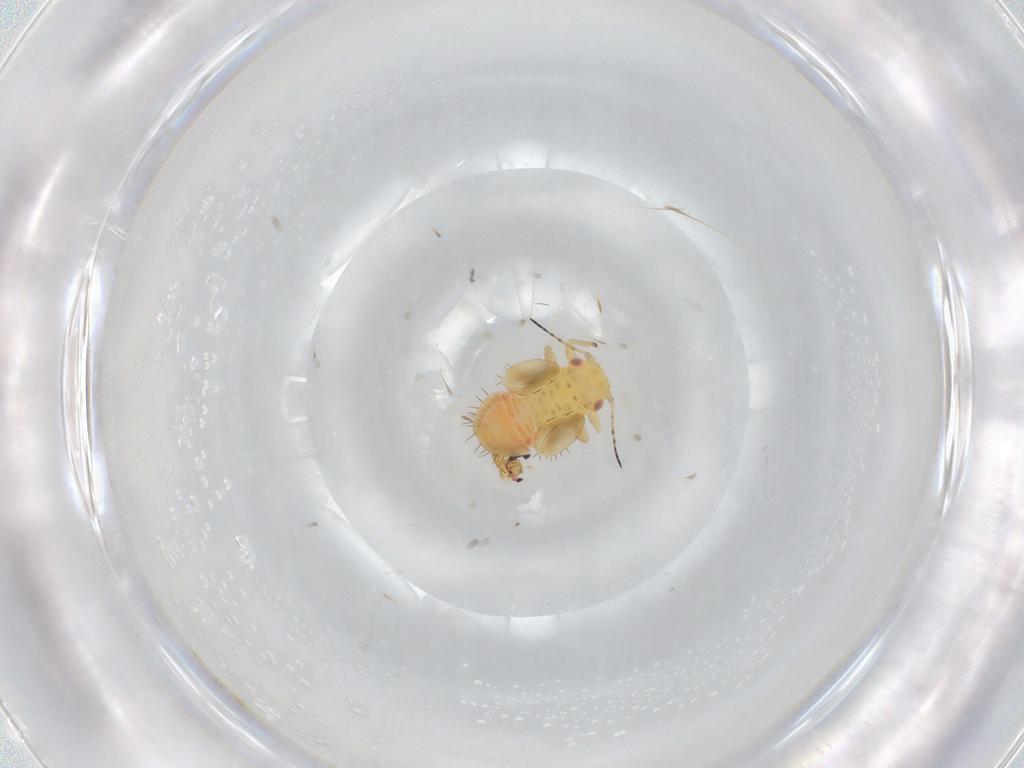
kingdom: Animalia
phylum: Arthropoda
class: Insecta
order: Hemiptera
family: Psyllidae
